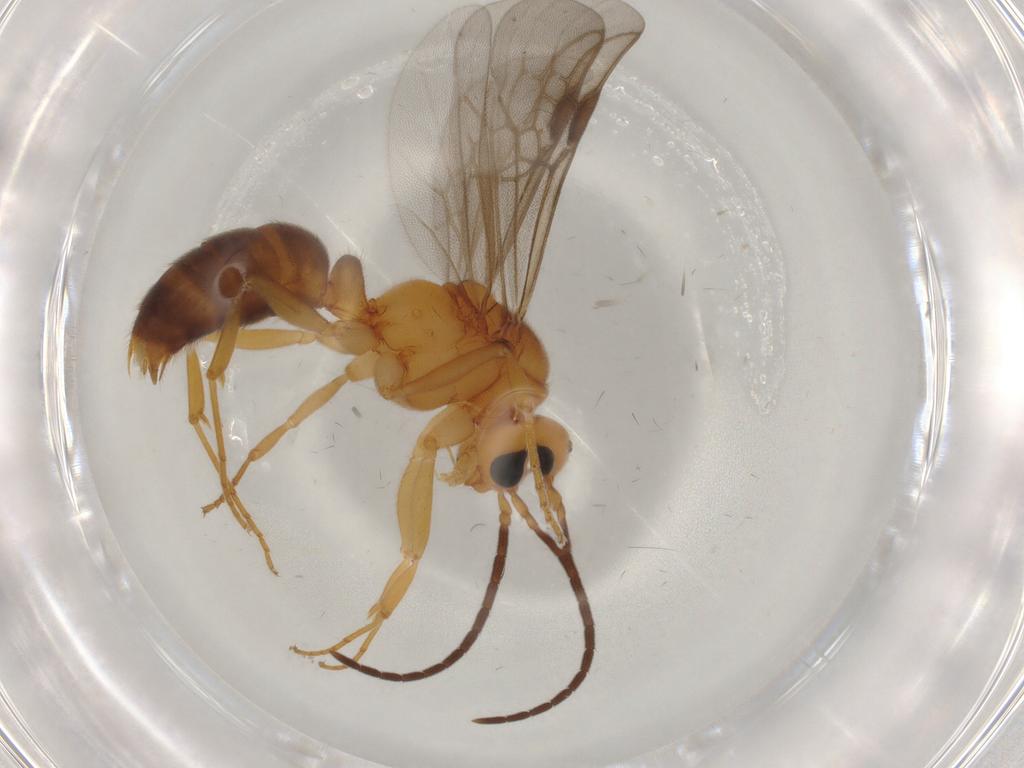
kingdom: Animalia
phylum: Arthropoda
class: Insecta
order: Hymenoptera
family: Formicidae
